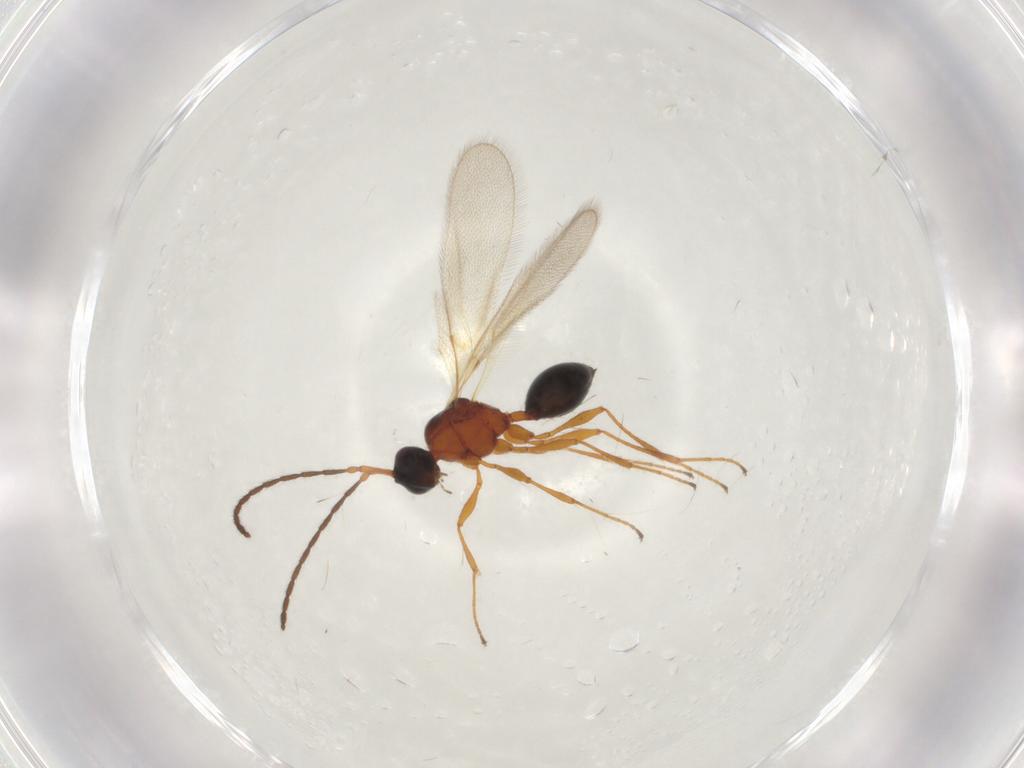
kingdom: Animalia
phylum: Arthropoda
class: Insecta
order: Hymenoptera
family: Diapriidae
